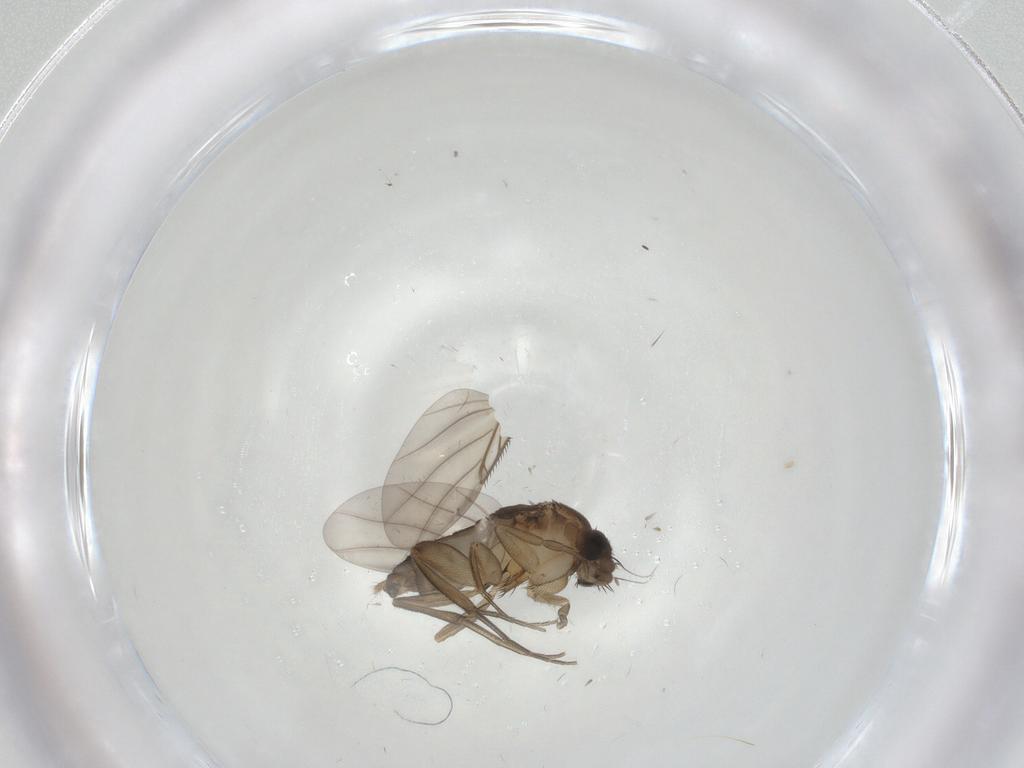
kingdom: Animalia
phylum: Arthropoda
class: Insecta
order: Diptera
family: Phoridae
